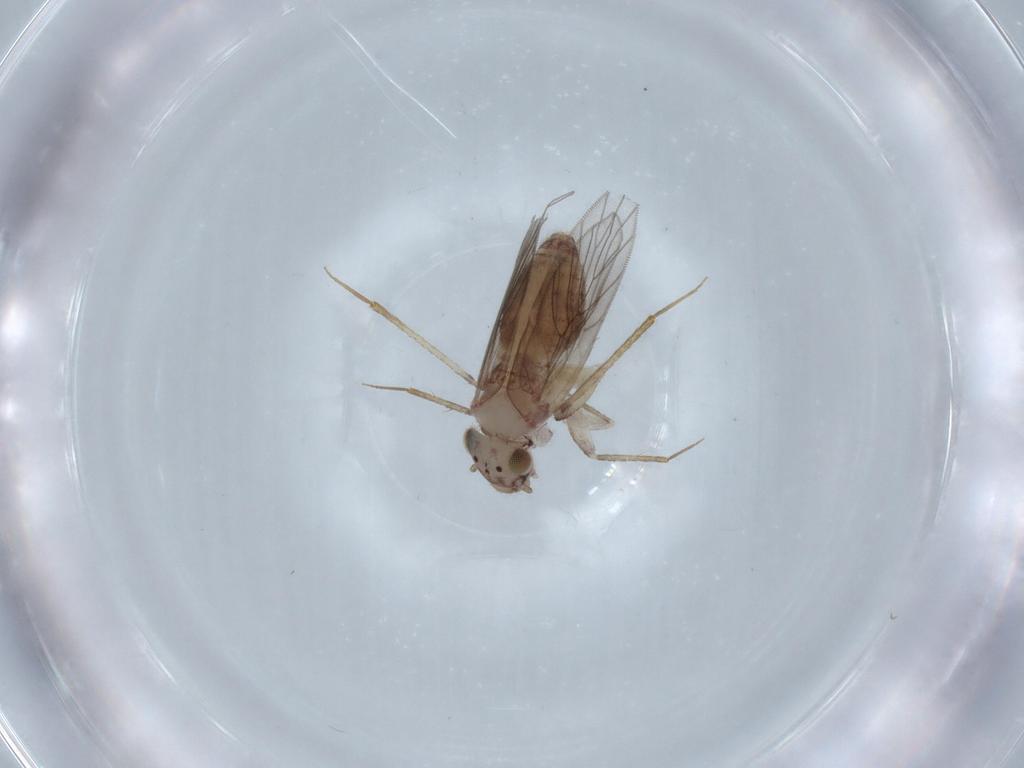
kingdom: Animalia
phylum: Arthropoda
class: Insecta
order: Psocodea
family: Lepidopsocidae
